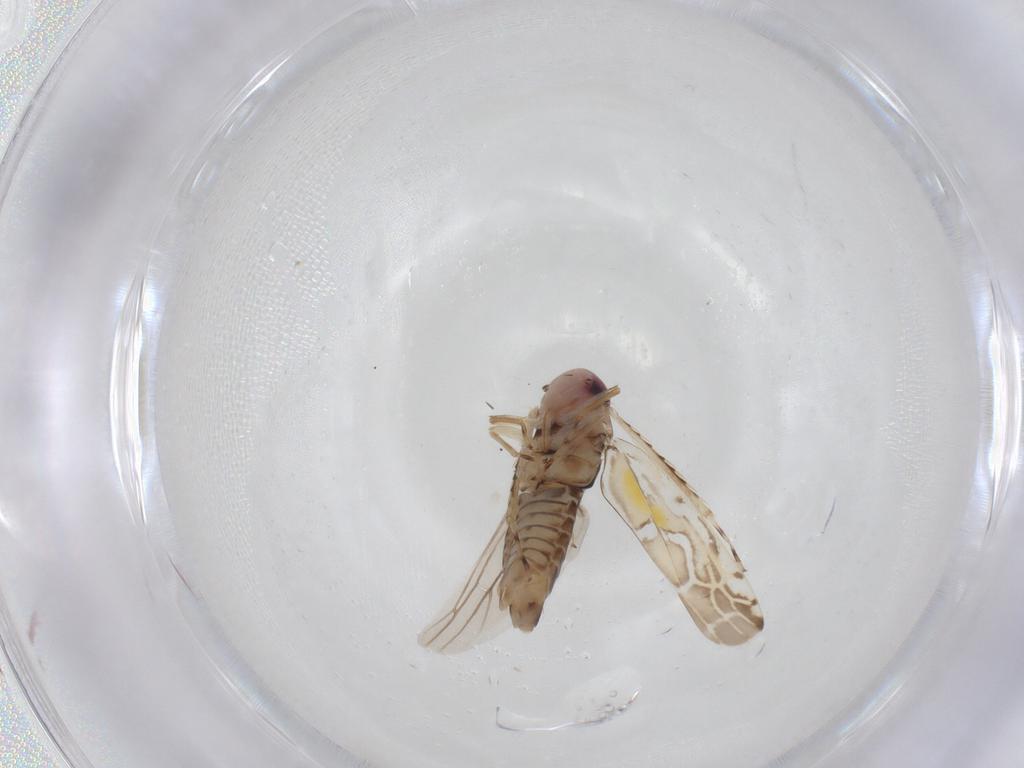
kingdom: Animalia
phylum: Arthropoda
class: Insecta
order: Hemiptera
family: Cicadellidae
